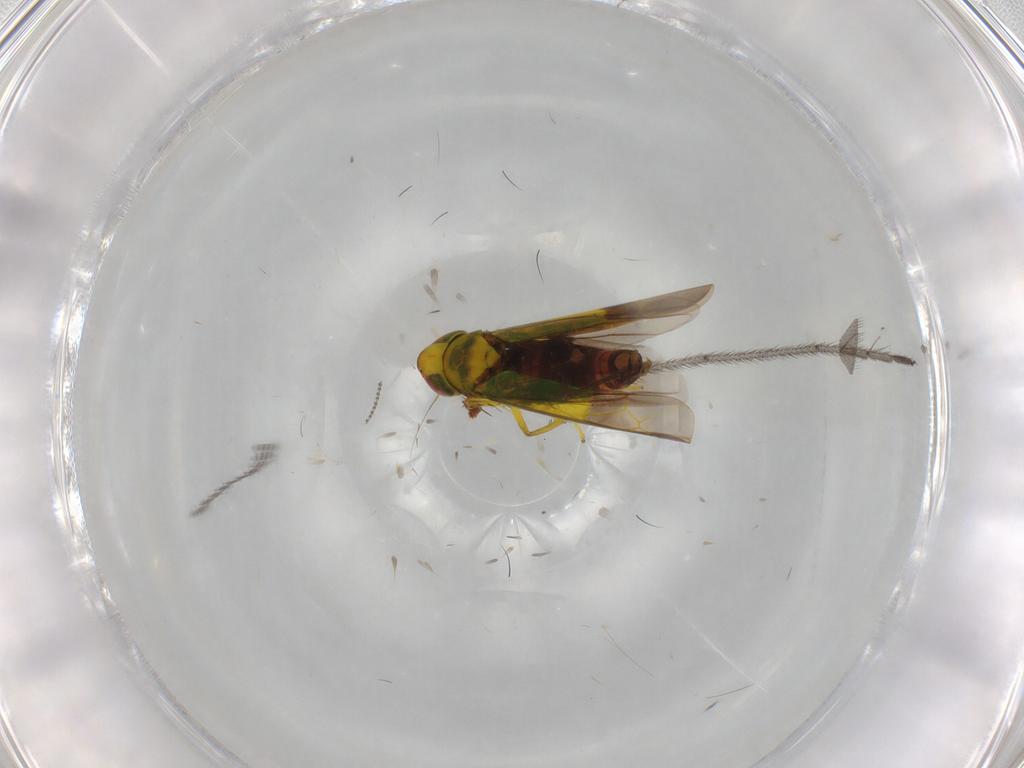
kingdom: Animalia
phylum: Arthropoda
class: Insecta
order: Hemiptera
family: Cicadellidae
